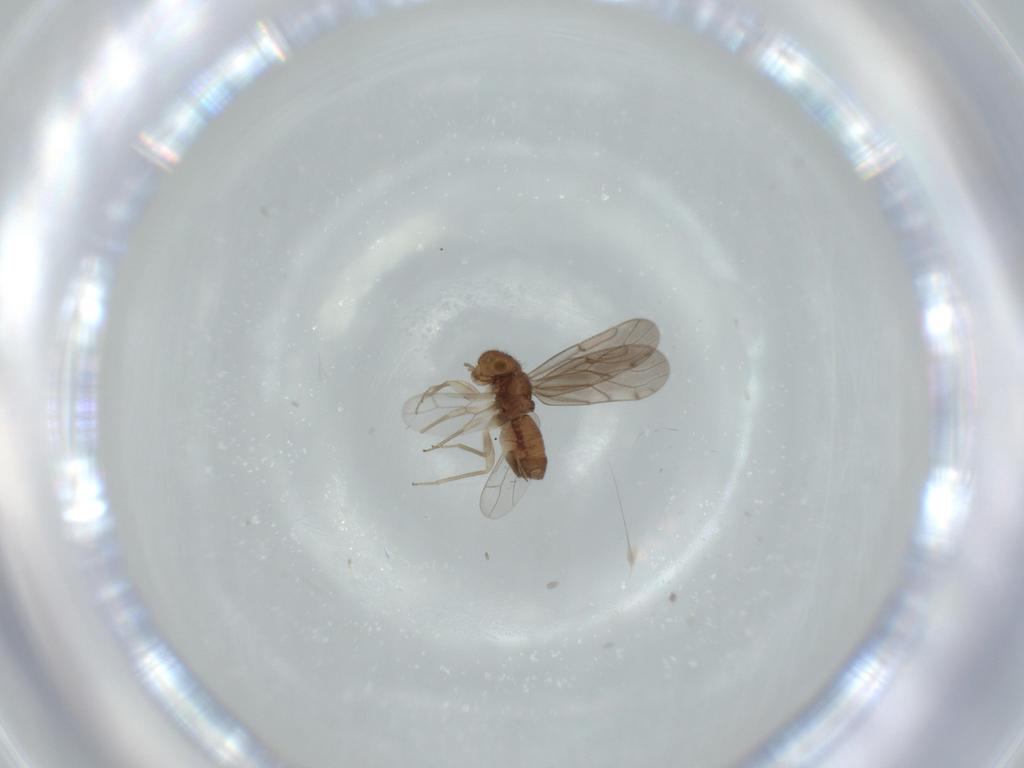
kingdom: Animalia
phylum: Arthropoda
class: Insecta
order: Psocodea
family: Ectopsocidae
